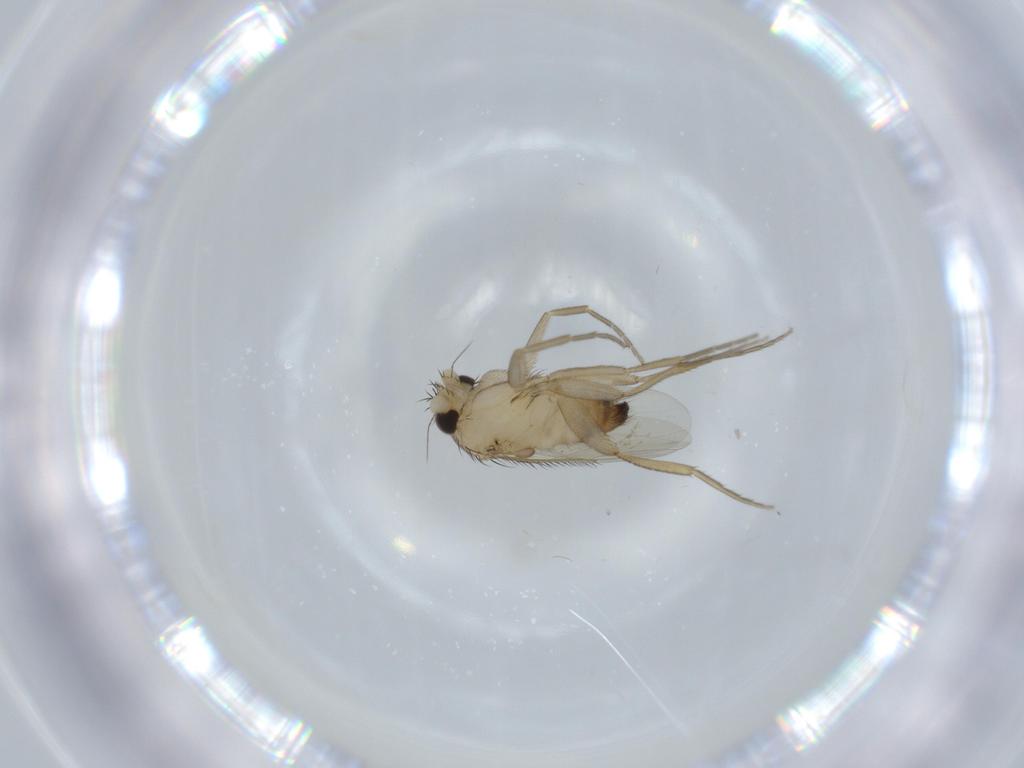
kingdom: Animalia
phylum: Arthropoda
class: Insecta
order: Diptera
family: Phoridae
